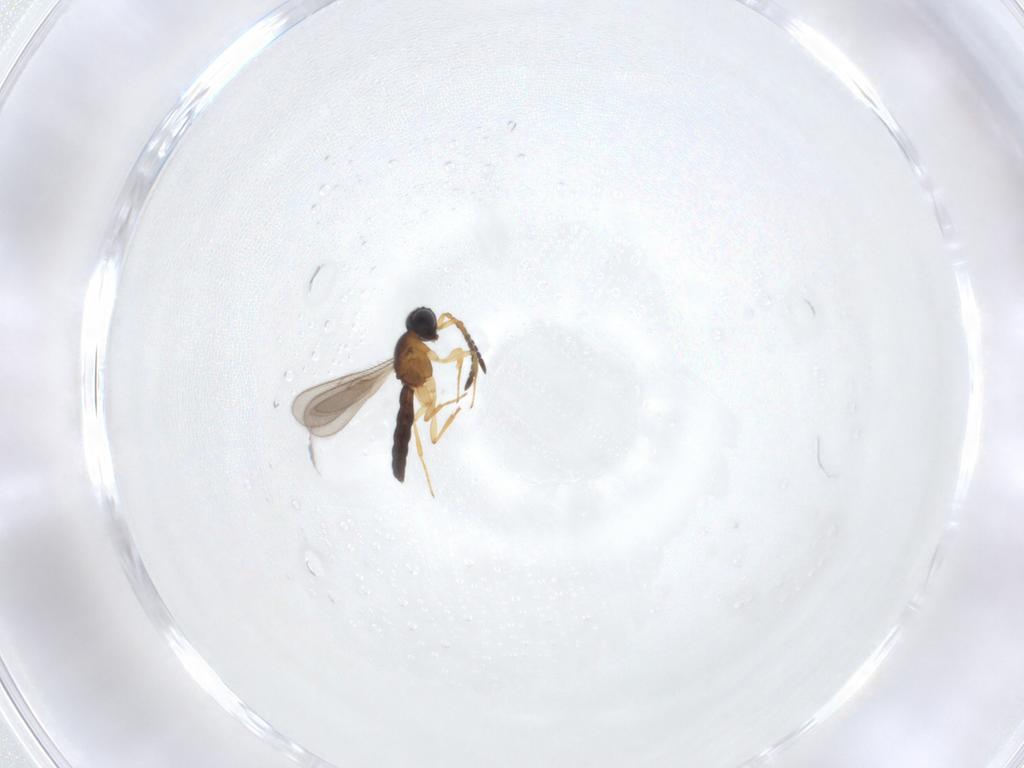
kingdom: Animalia
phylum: Arthropoda
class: Insecta
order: Hymenoptera
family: Scelionidae
